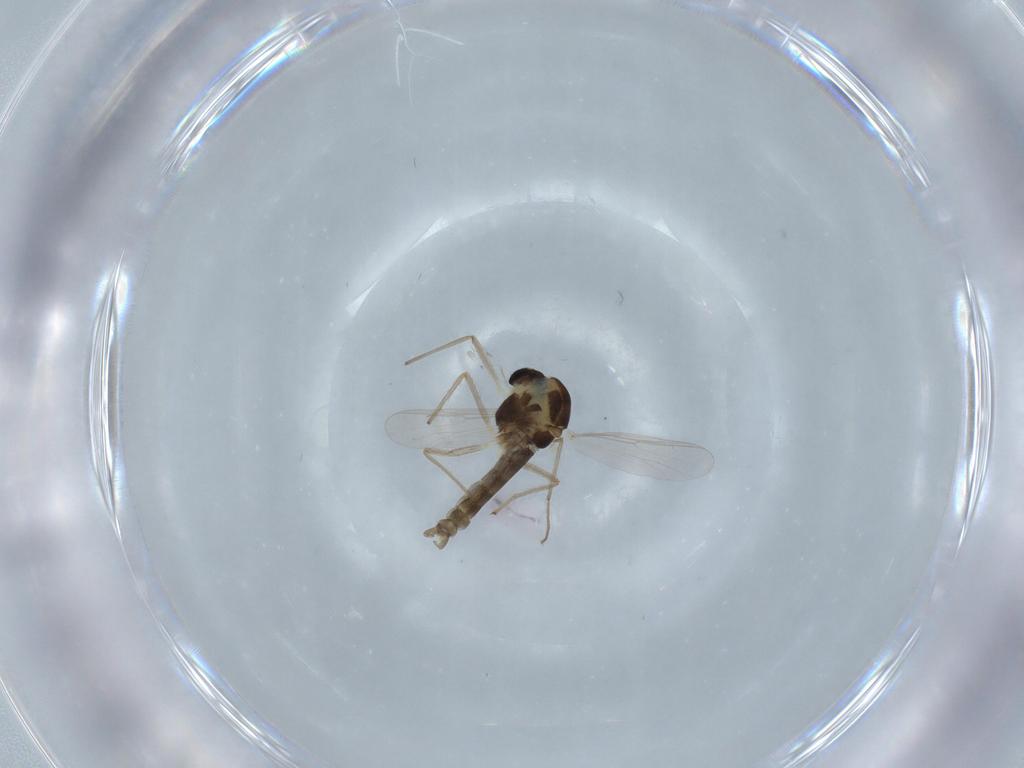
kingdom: Animalia
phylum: Arthropoda
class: Insecta
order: Diptera
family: Chironomidae
